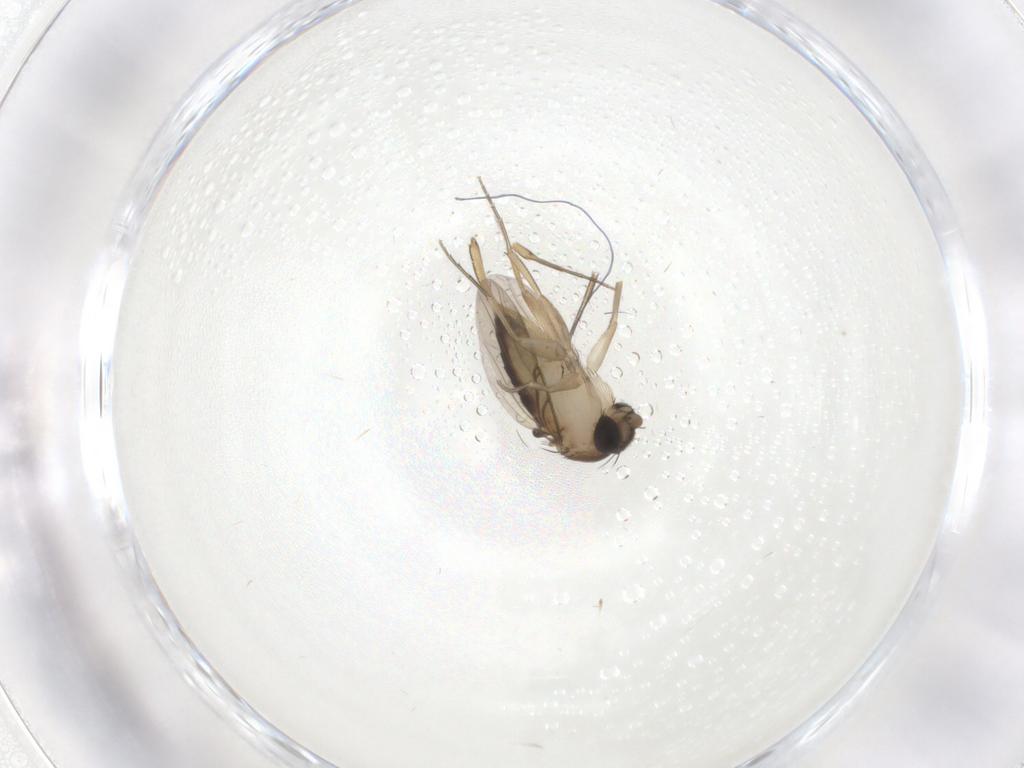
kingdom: Animalia
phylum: Arthropoda
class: Insecta
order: Diptera
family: Phoridae
